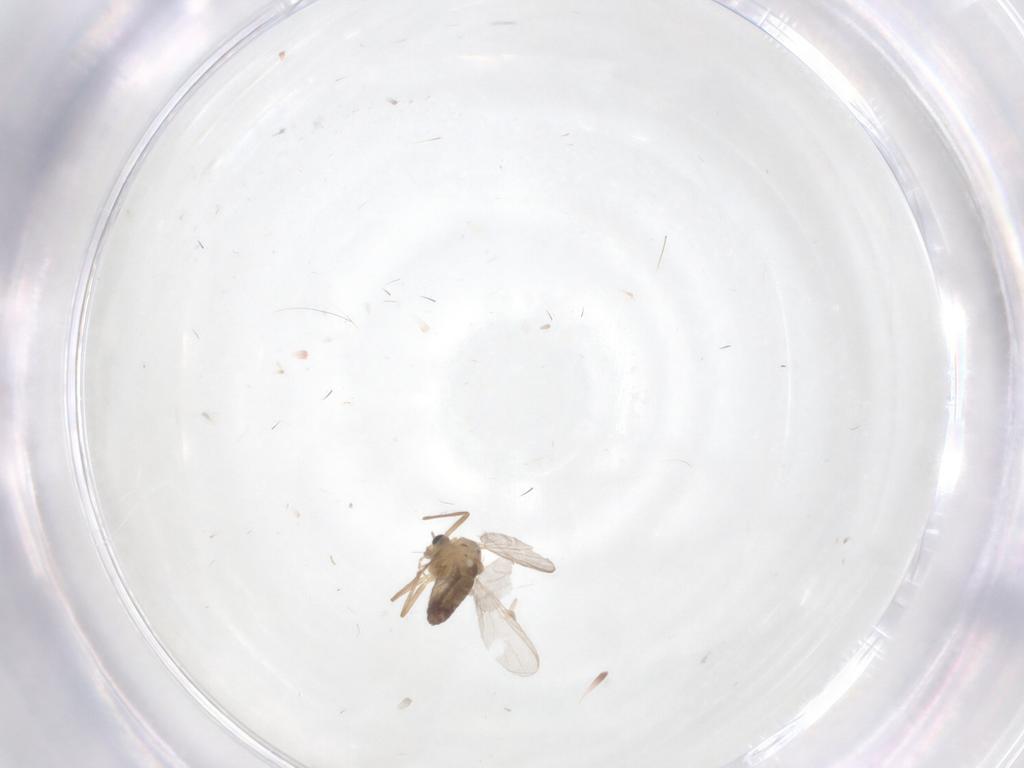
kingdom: Animalia
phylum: Arthropoda
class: Insecta
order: Diptera
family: Chironomidae
